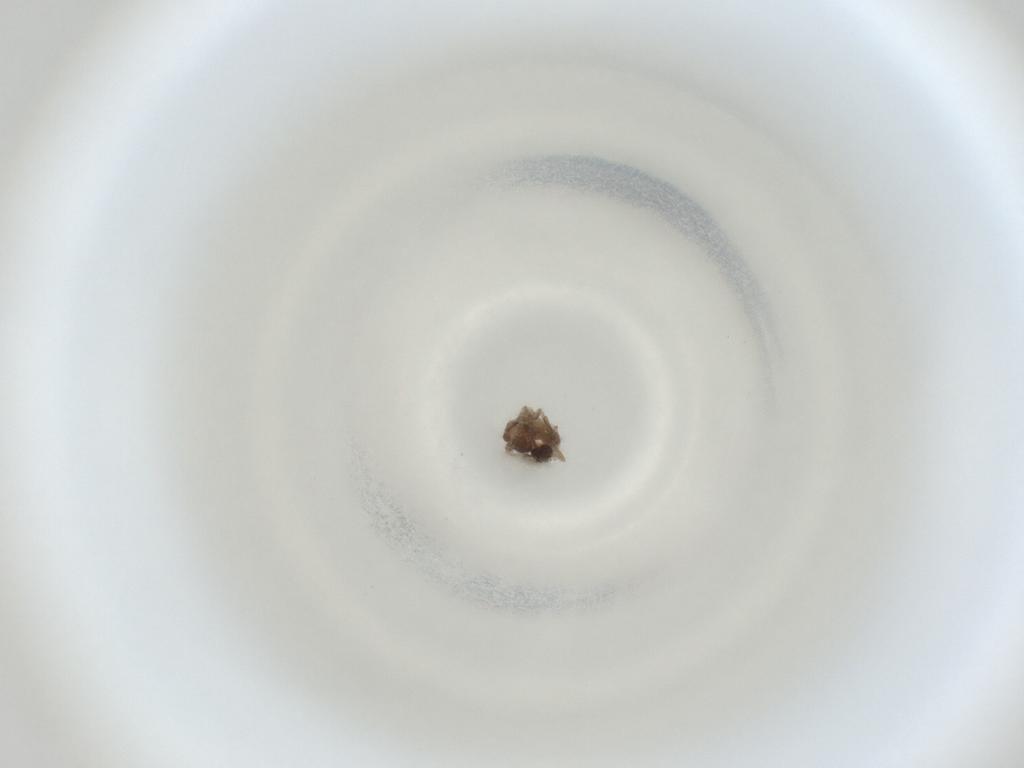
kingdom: Animalia
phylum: Arthropoda
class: Insecta
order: Diptera
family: Cecidomyiidae
